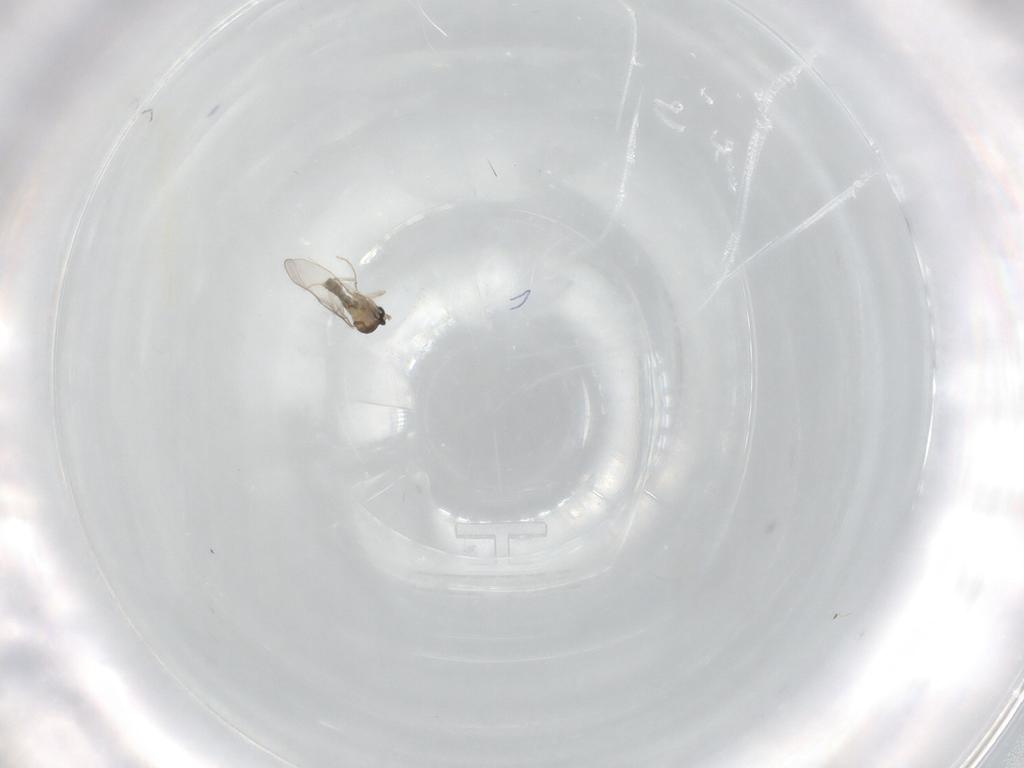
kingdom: Animalia
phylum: Arthropoda
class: Insecta
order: Diptera
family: Cecidomyiidae
